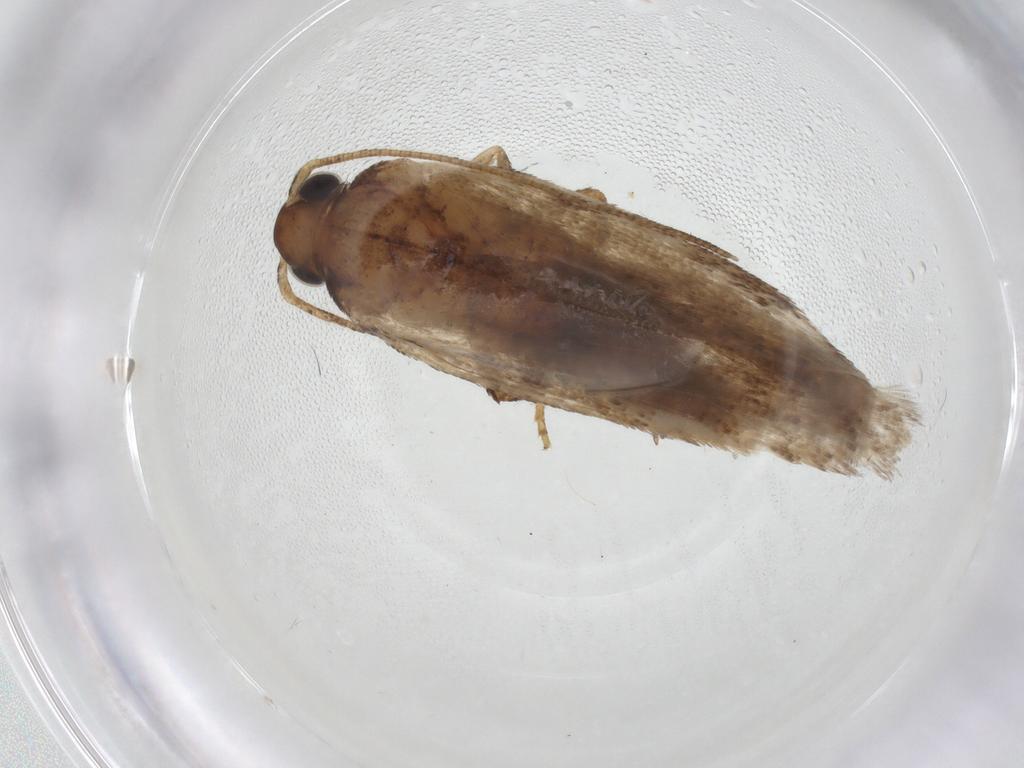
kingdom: Animalia
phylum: Arthropoda
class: Insecta
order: Lepidoptera
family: Gelechiidae
